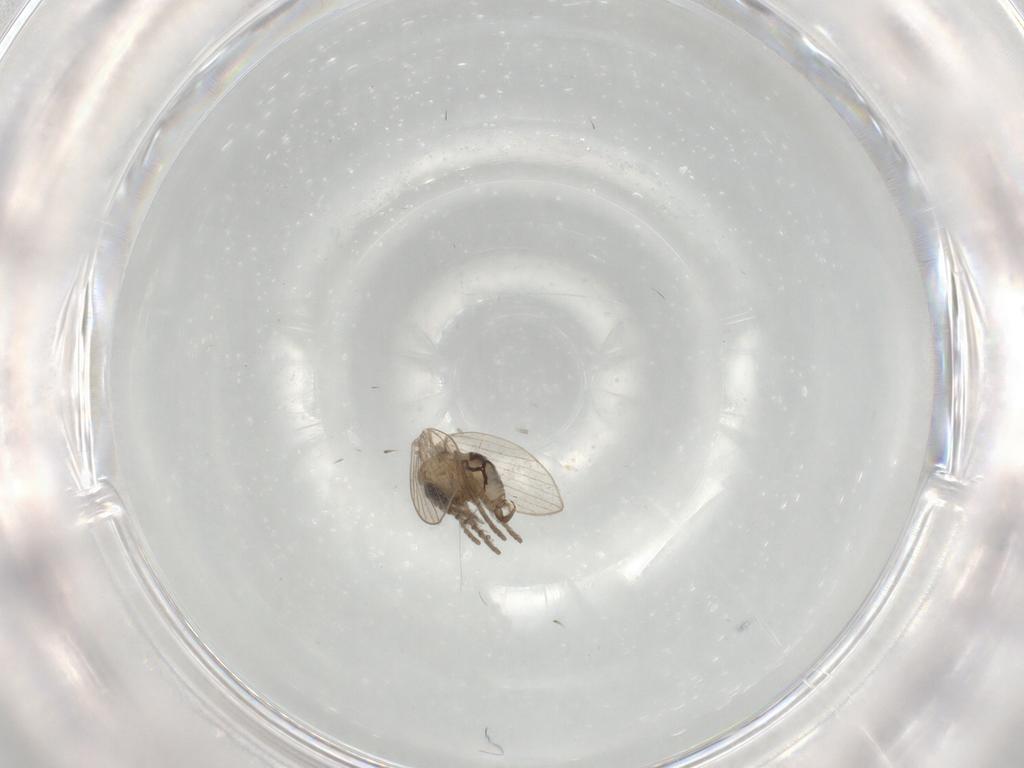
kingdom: Animalia
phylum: Arthropoda
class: Insecta
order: Diptera
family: Psychodidae
